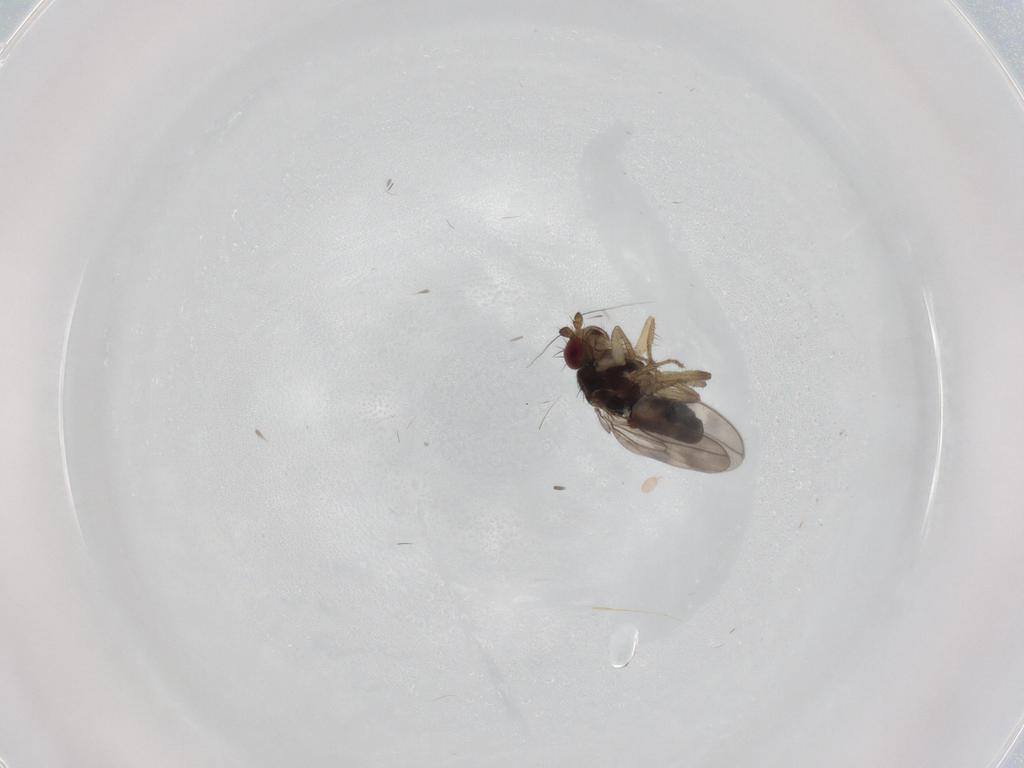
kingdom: Animalia
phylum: Arthropoda
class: Insecta
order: Diptera
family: Sphaeroceridae
